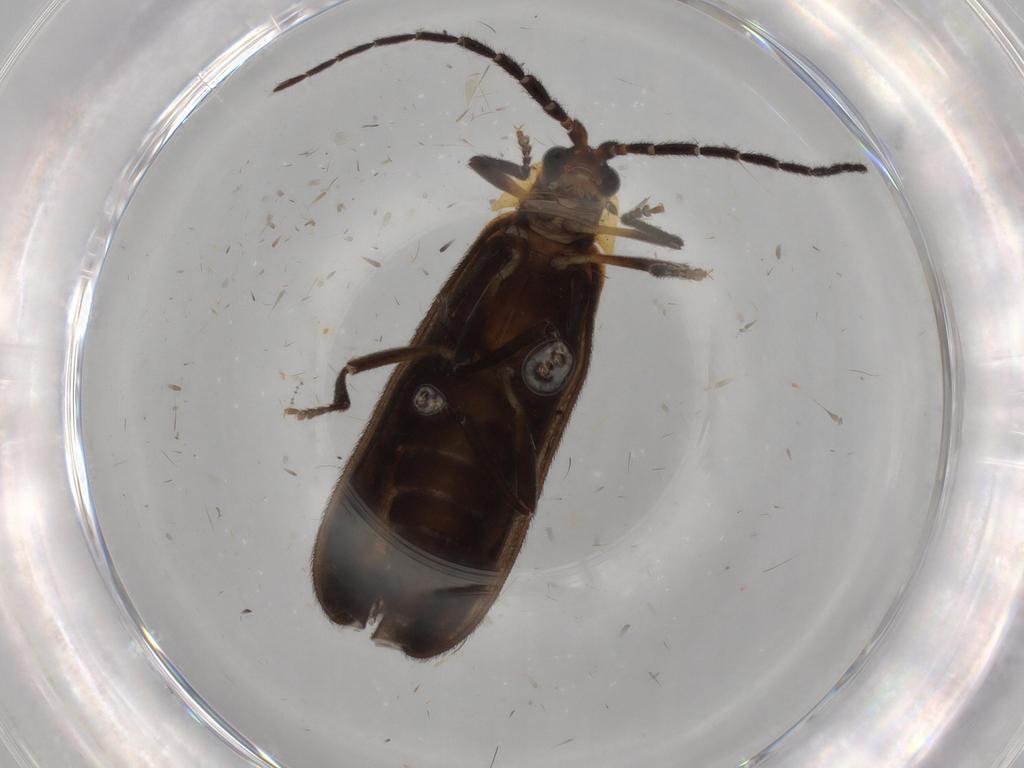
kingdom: Animalia
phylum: Arthropoda
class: Insecta
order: Coleoptera
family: Lycidae
